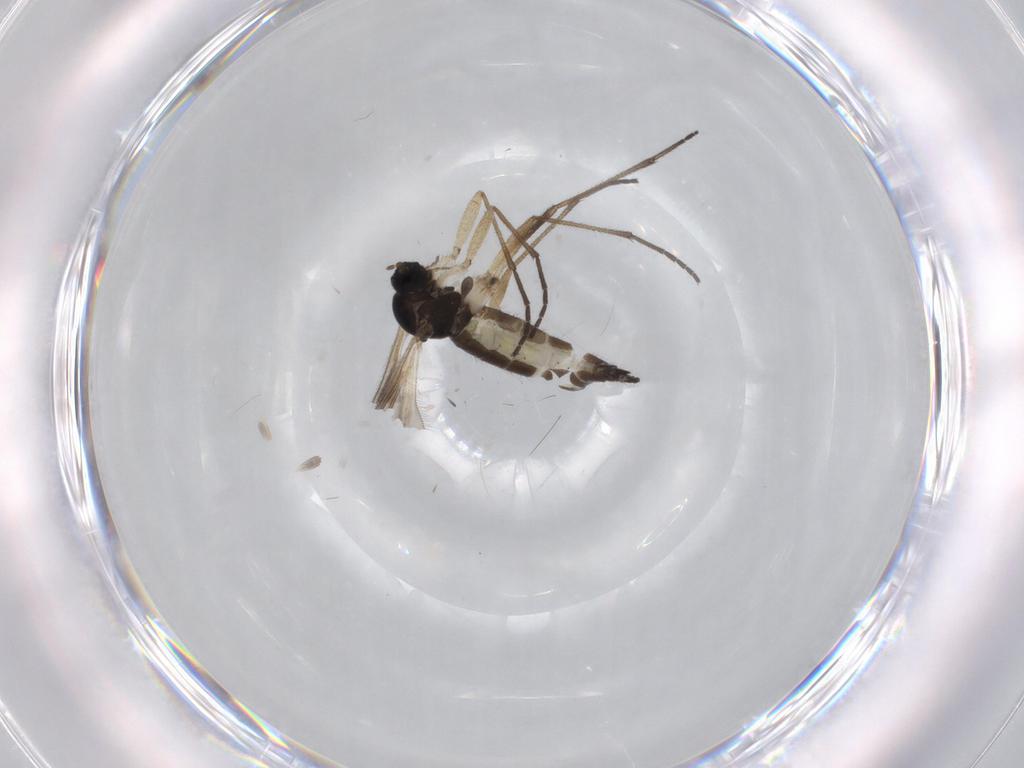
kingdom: Animalia
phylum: Arthropoda
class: Insecta
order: Diptera
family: Sciaridae
